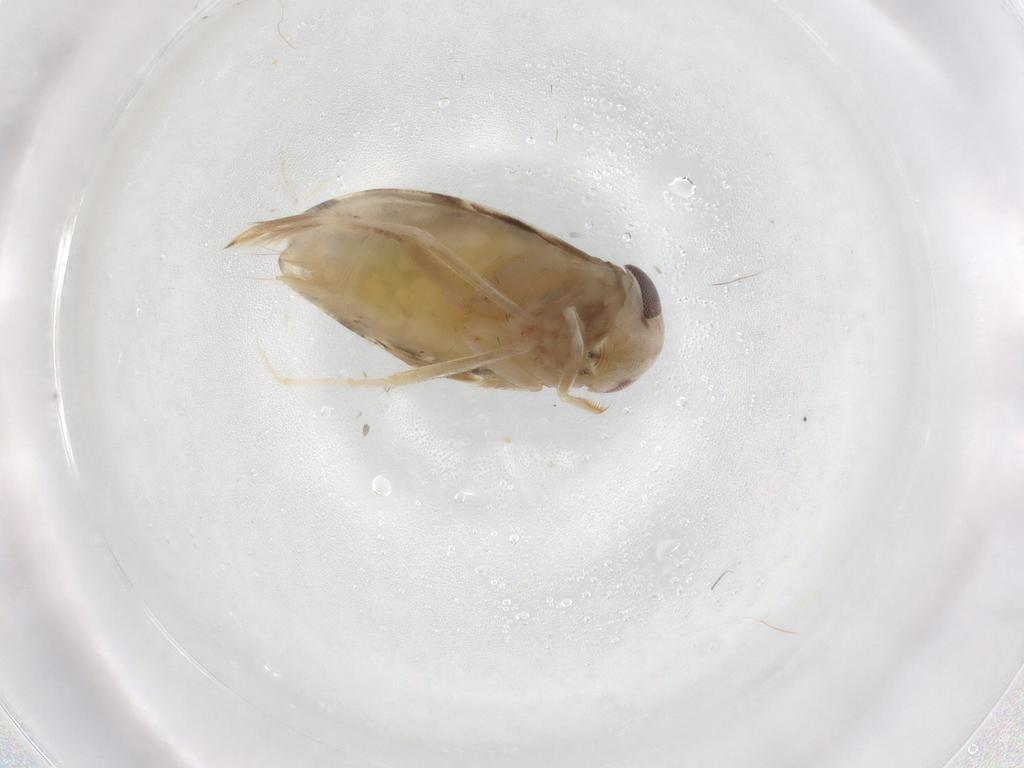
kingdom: Animalia
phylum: Arthropoda
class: Insecta
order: Hemiptera
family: Corixidae
